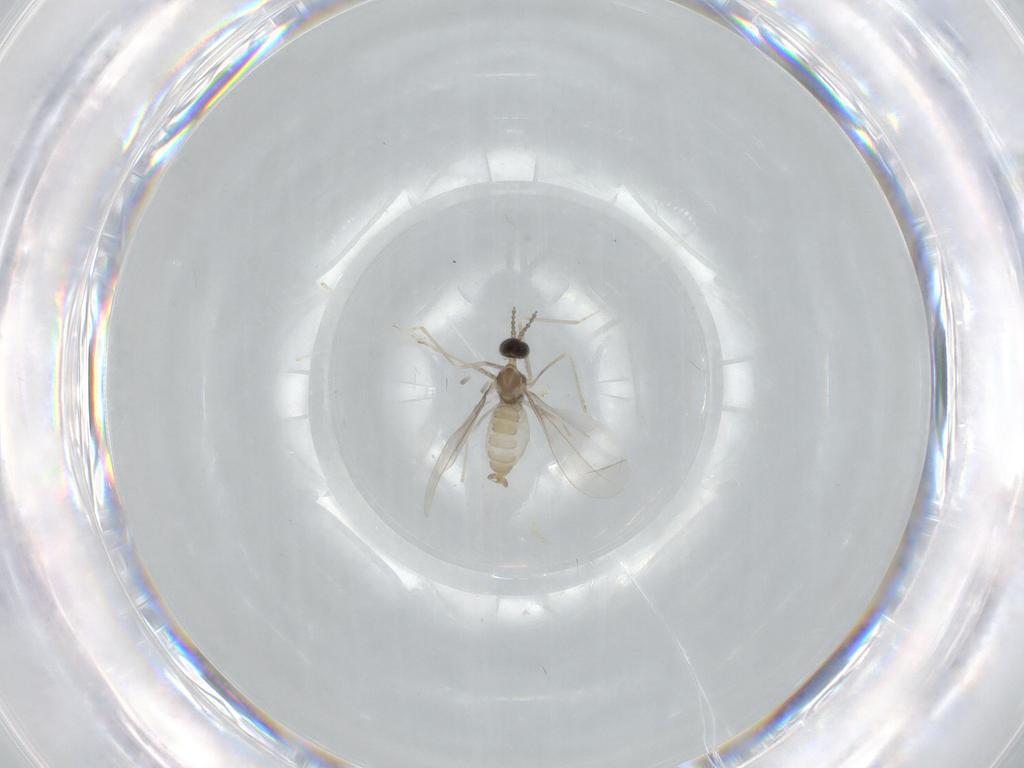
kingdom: Animalia
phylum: Arthropoda
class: Insecta
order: Diptera
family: Cecidomyiidae
